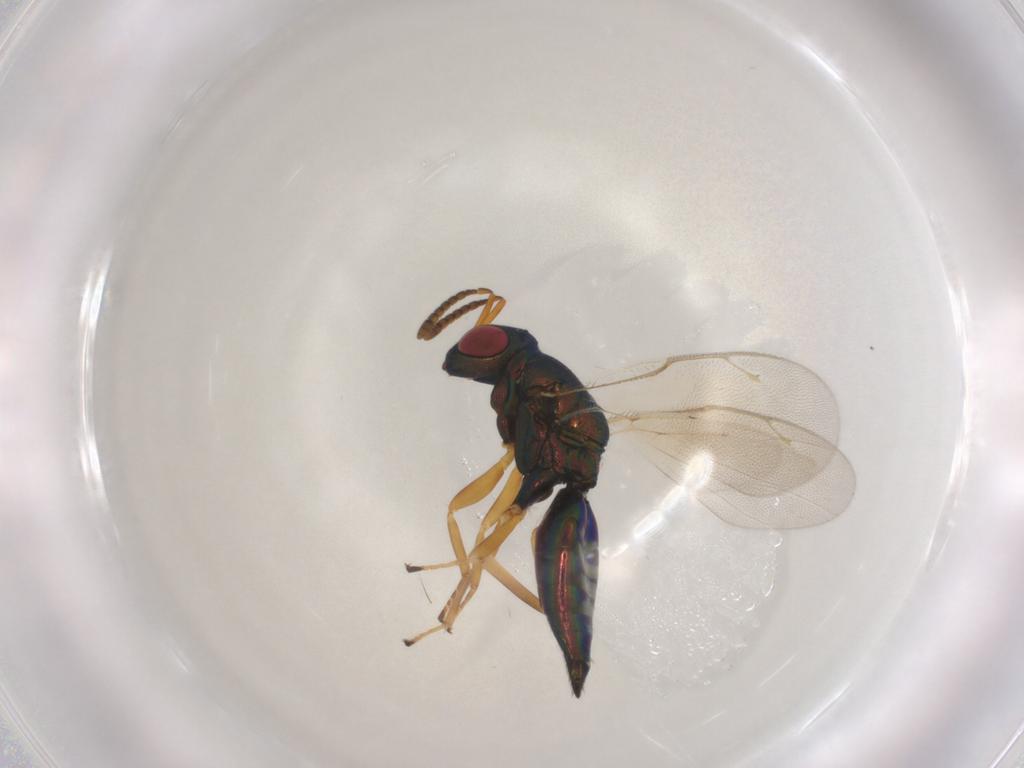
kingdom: Animalia
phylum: Arthropoda
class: Insecta
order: Hymenoptera
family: Pteromalidae
